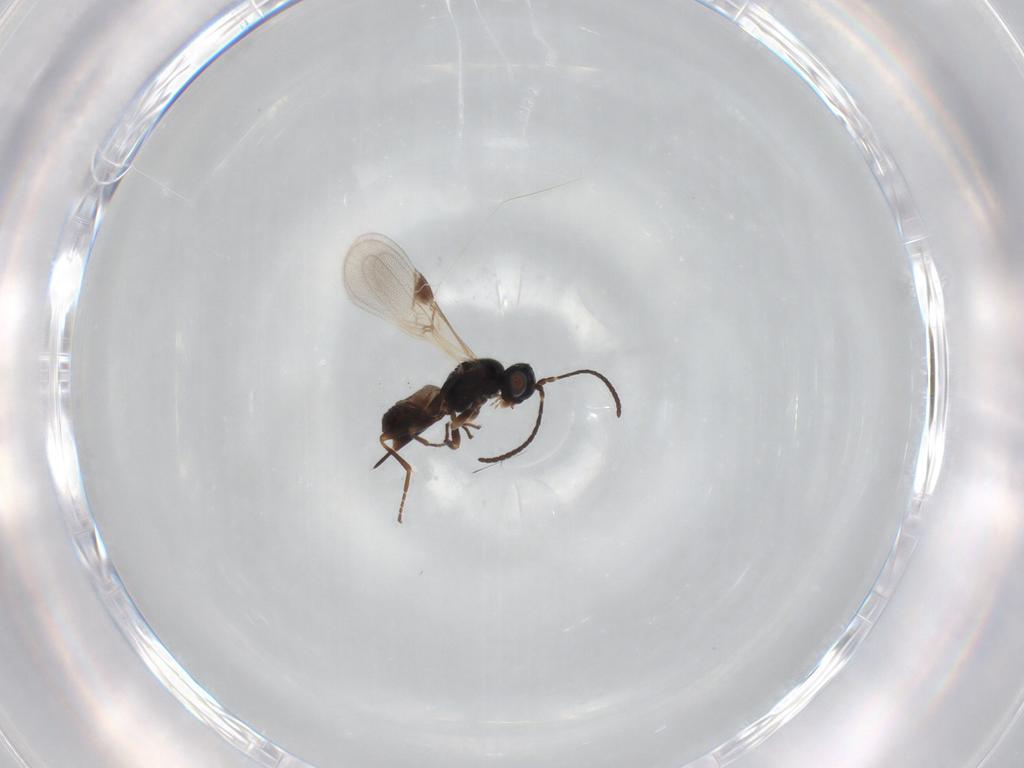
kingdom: Animalia
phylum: Arthropoda
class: Insecta
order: Hymenoptera
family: Braconidae
